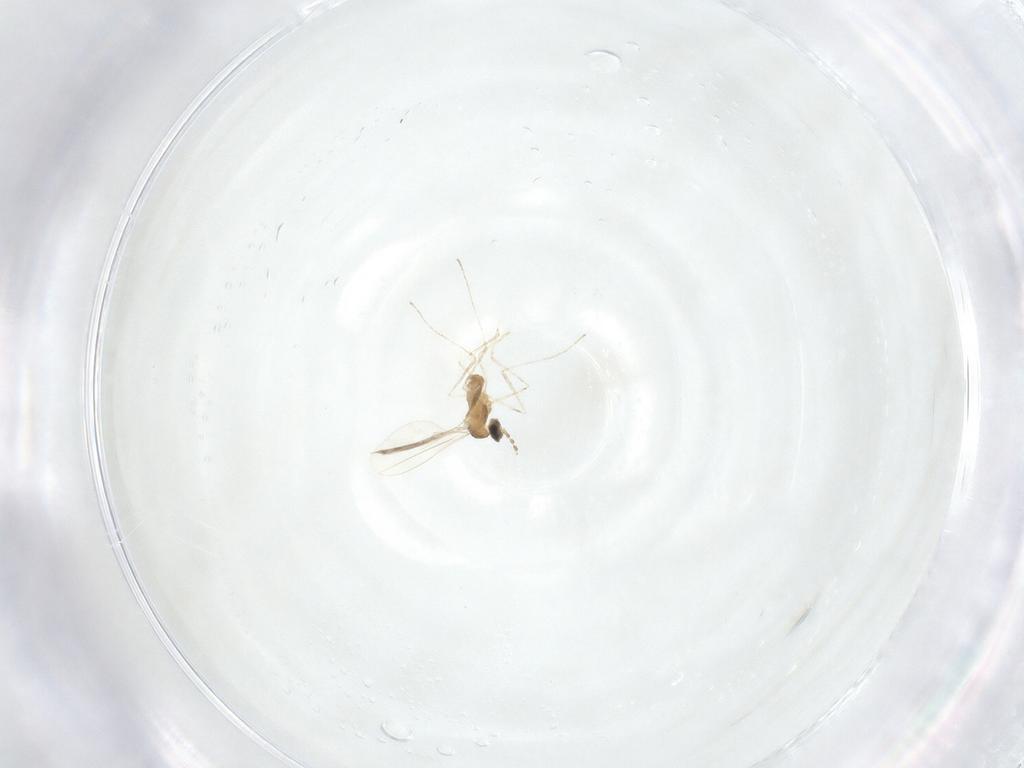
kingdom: Animalia
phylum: Arthropoda
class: Insecta
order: Diptera
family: Cecidomyiidae
